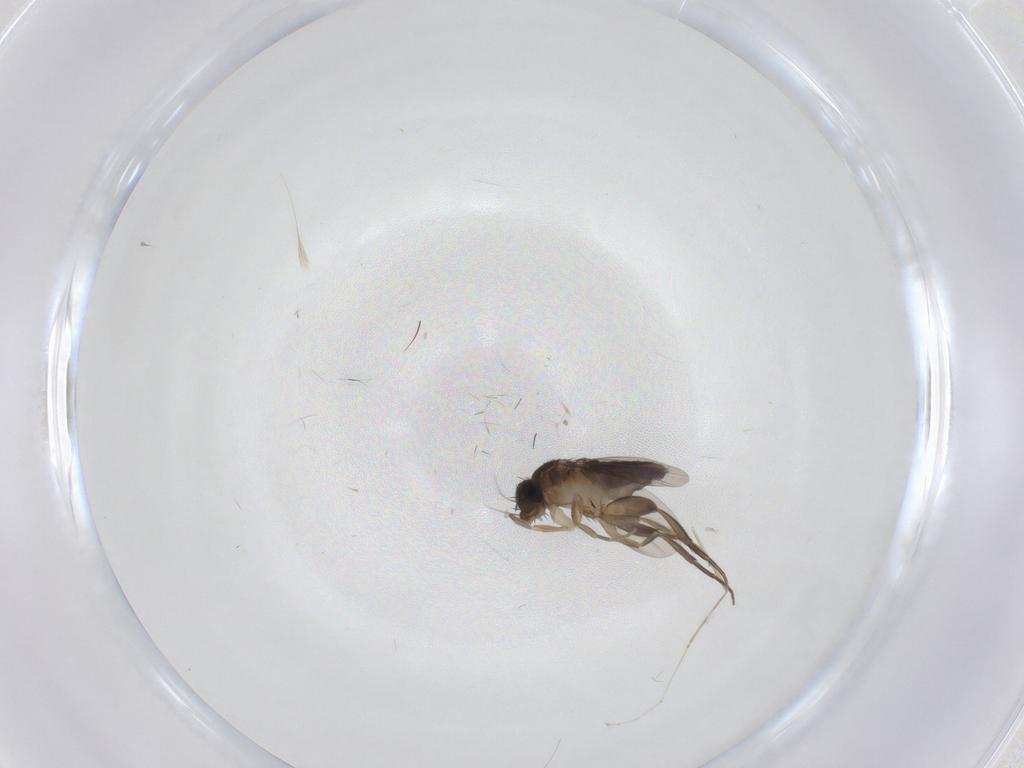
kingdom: Animalia
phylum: Arthropoda
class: Insecta
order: Diptera
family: Phoridae
